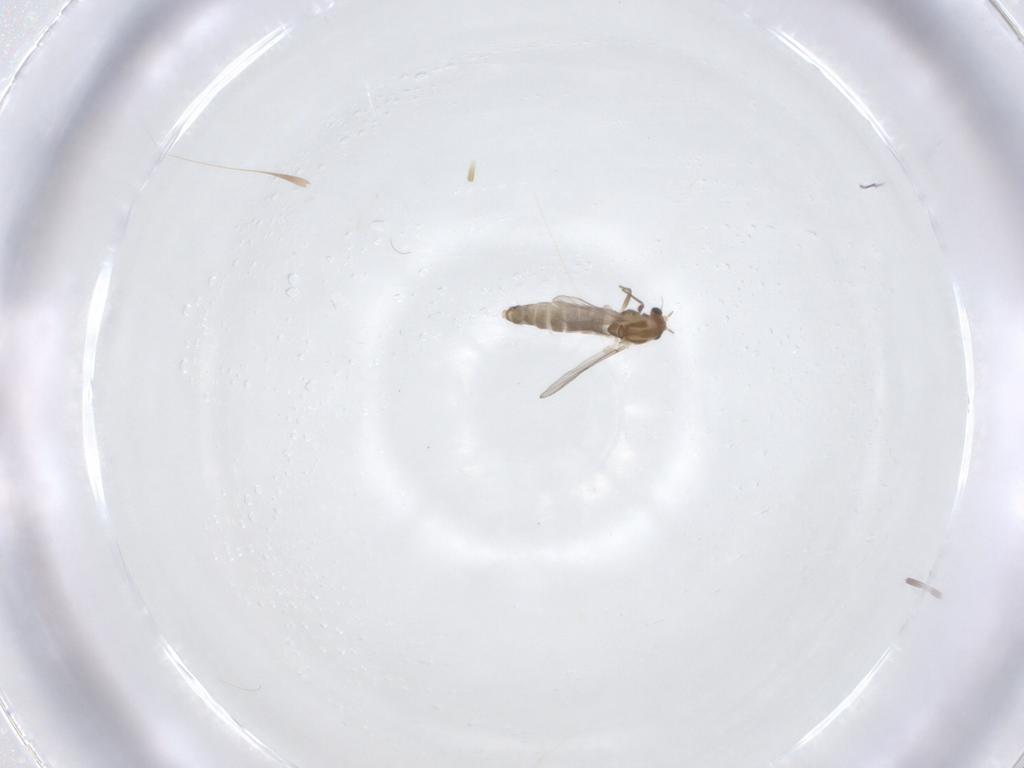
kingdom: Animalia
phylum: Arthropoda
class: Insecta
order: Diptera
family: Chironomidae
